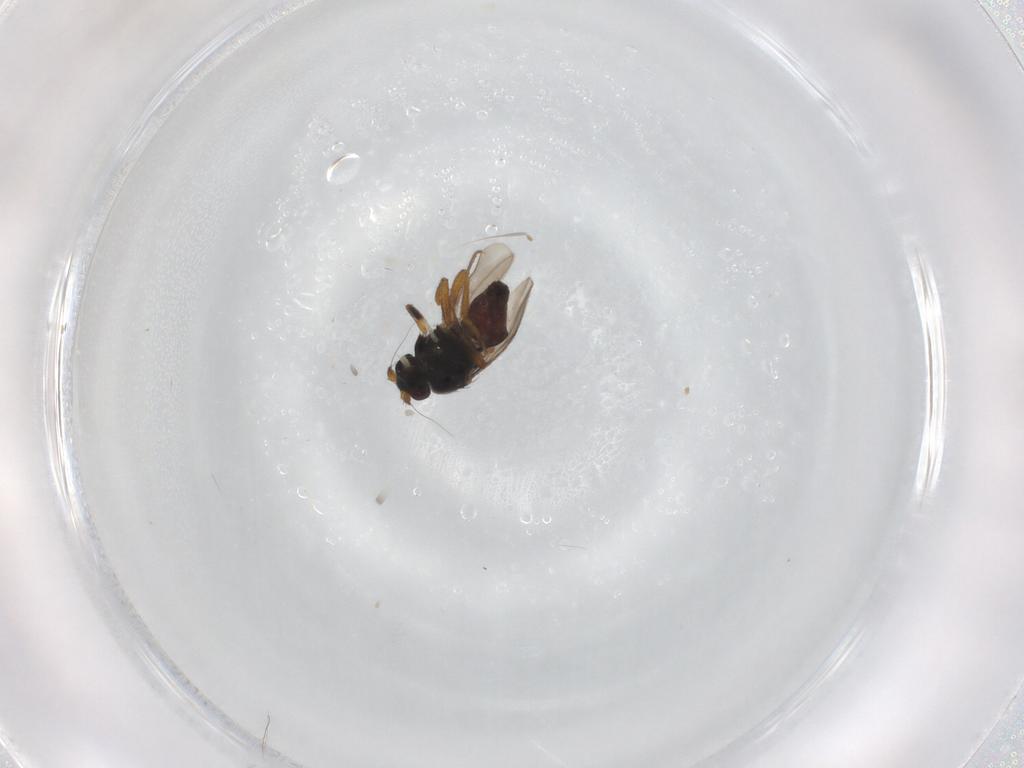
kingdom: Animalia
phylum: Arthropoda
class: Insecta
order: Diptera
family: Sphaeroceridae
